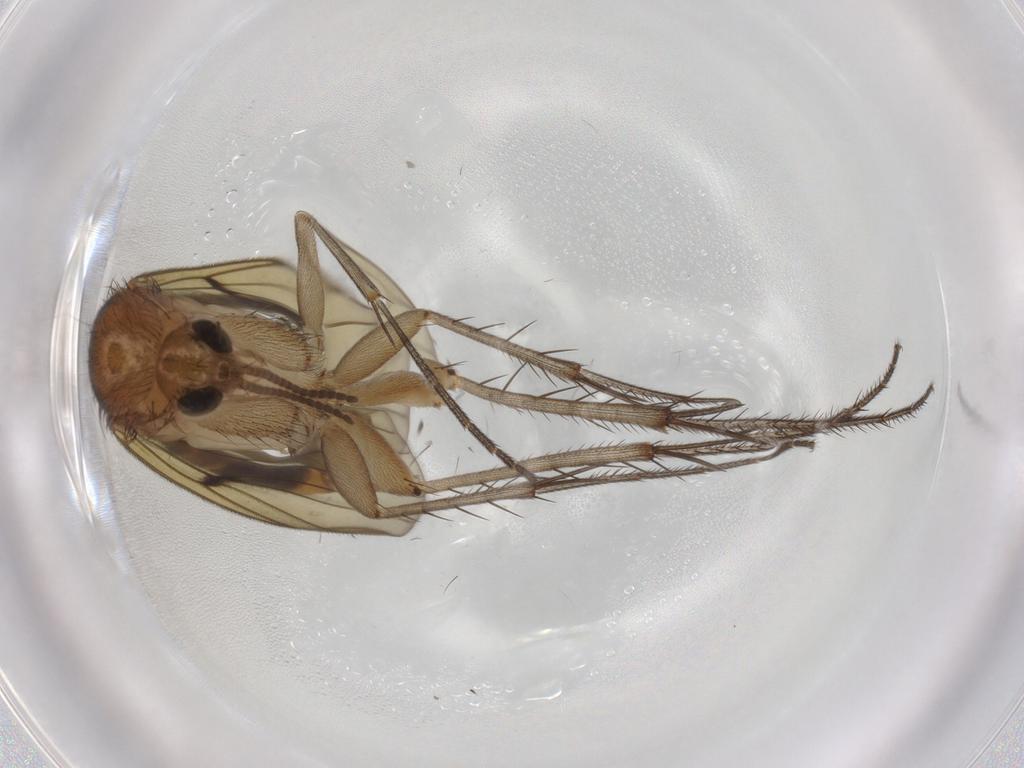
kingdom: Animalia
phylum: Arthropoda
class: Insecta
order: Diptera
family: Mycetophilidae
